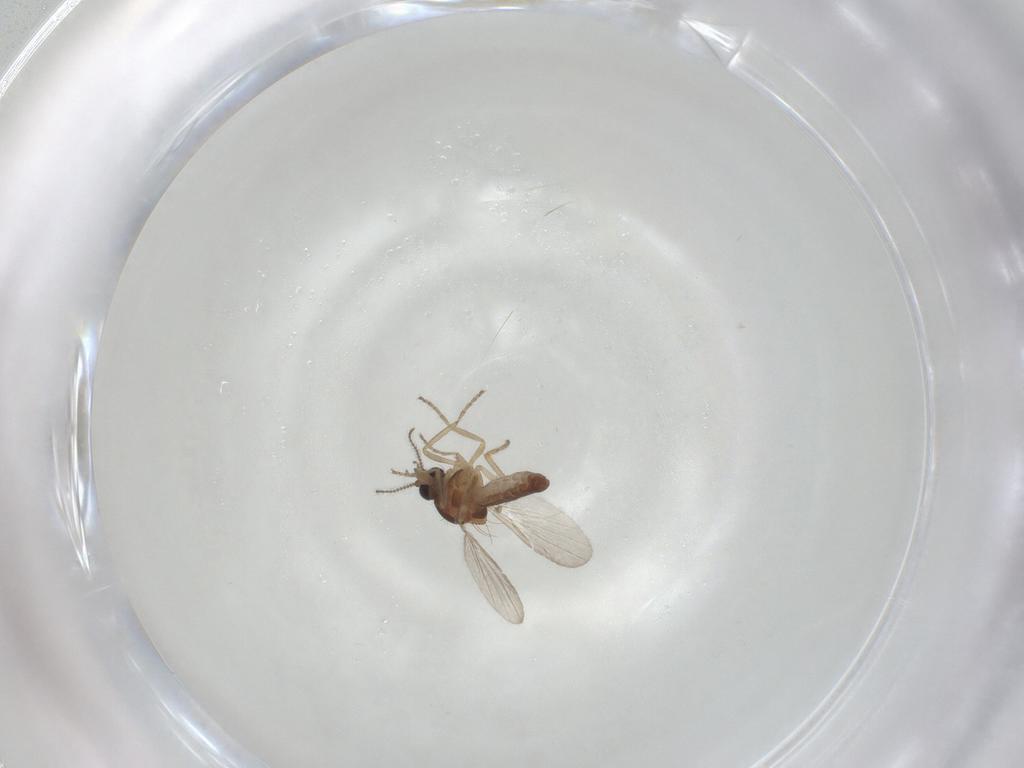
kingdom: Animalia
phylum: Arthropoda
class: Insecta
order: Diptera
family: Ceratopogonidae
